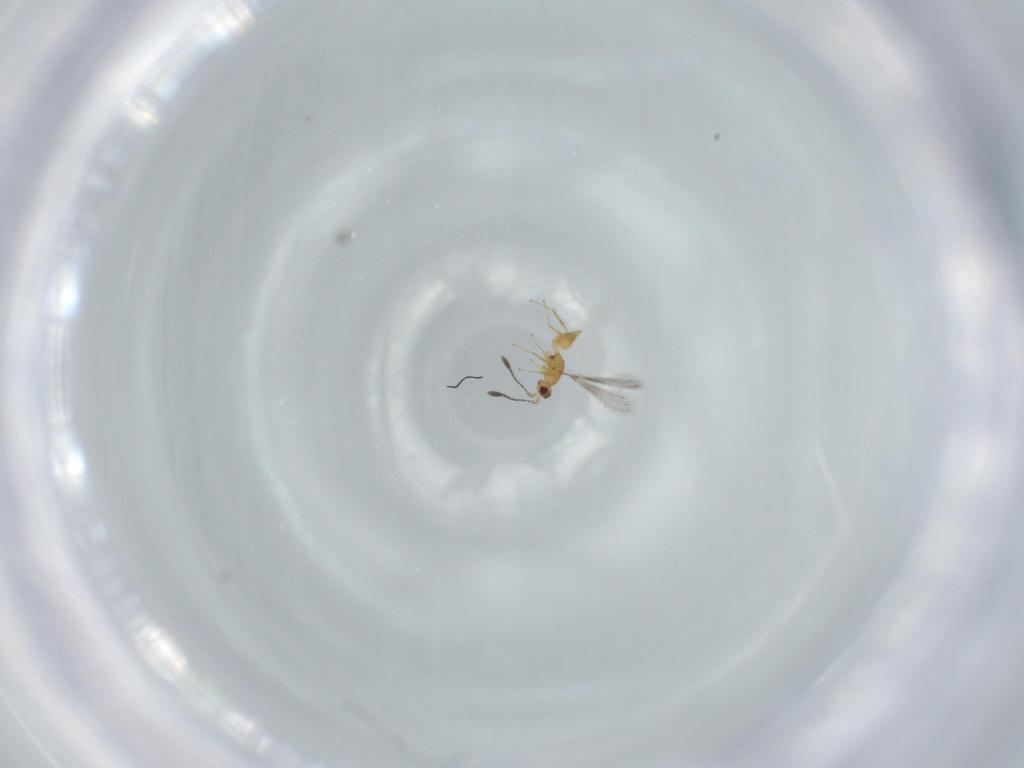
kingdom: Animalia
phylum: Arthropoda
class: Insecta
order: Hymenoptera
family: Mymaridae
